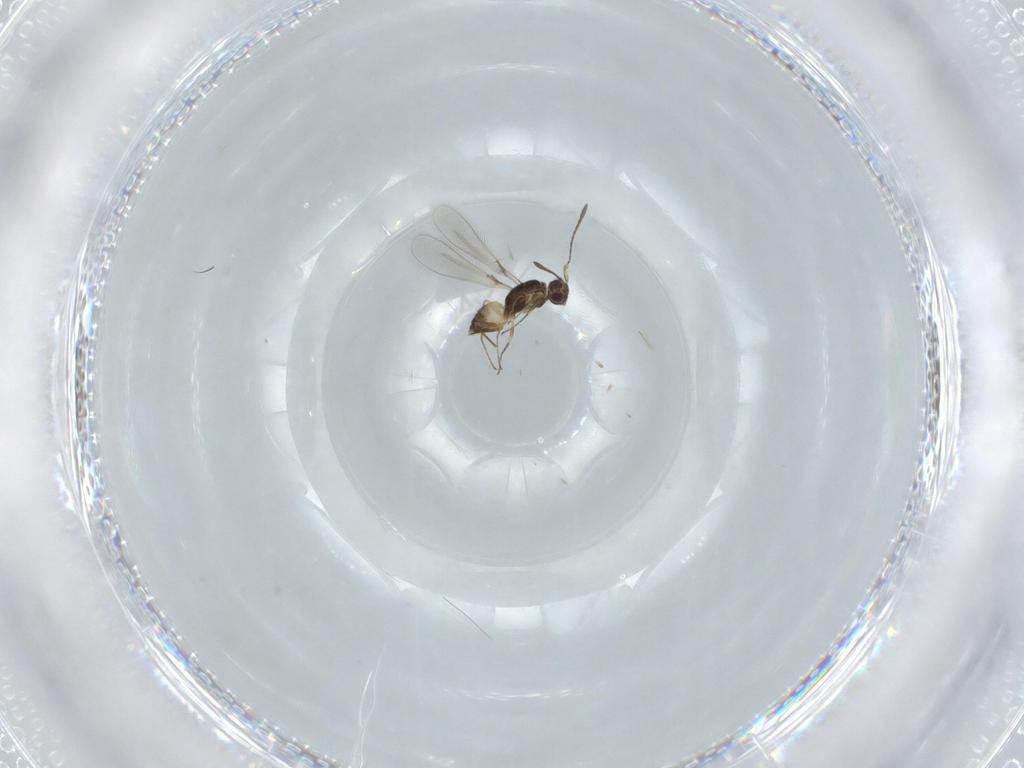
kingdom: Animalia
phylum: Arthropoda
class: Insecta
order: Hymenoptera
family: Mymaridae
